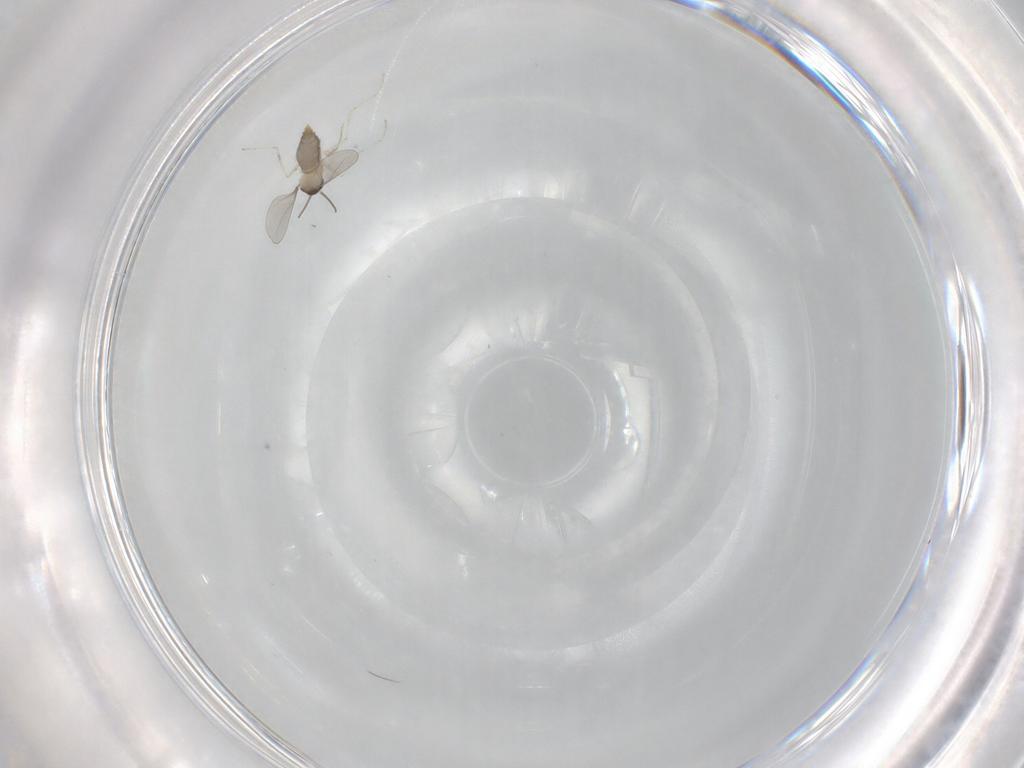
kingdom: Animalia
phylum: Arthropoda
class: Insecta
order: Diptera
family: Cecidomyiidae
